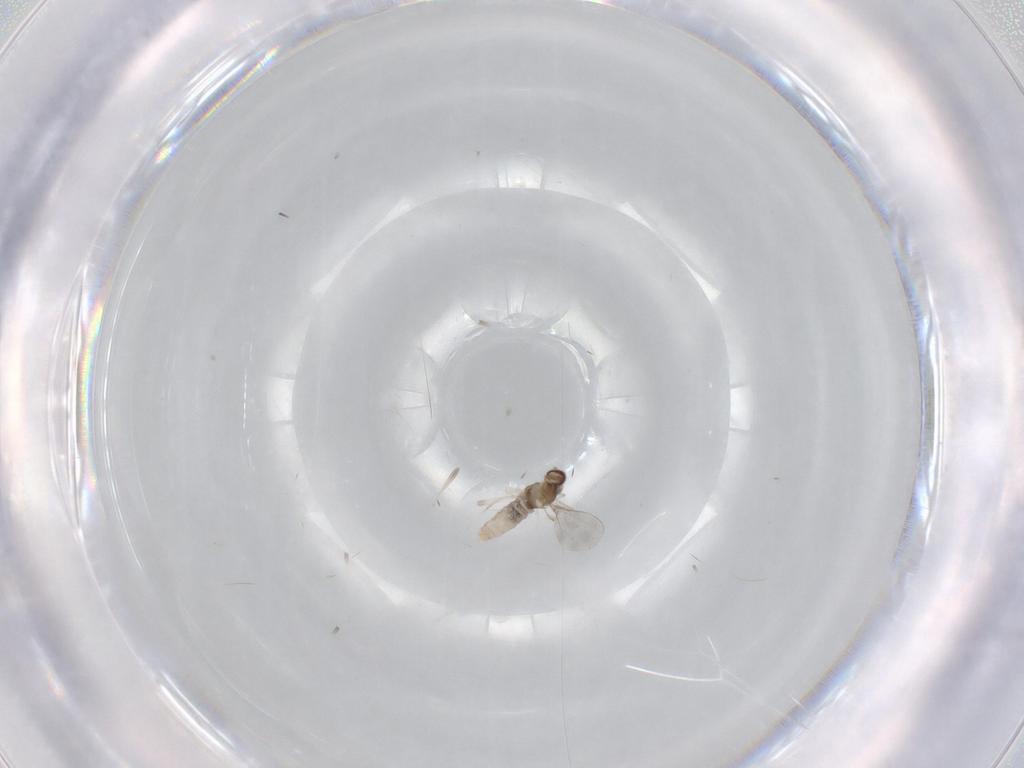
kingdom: Animalia
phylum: Arthropoda
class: Insecta
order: Diptera
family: Cecidomyiidae
